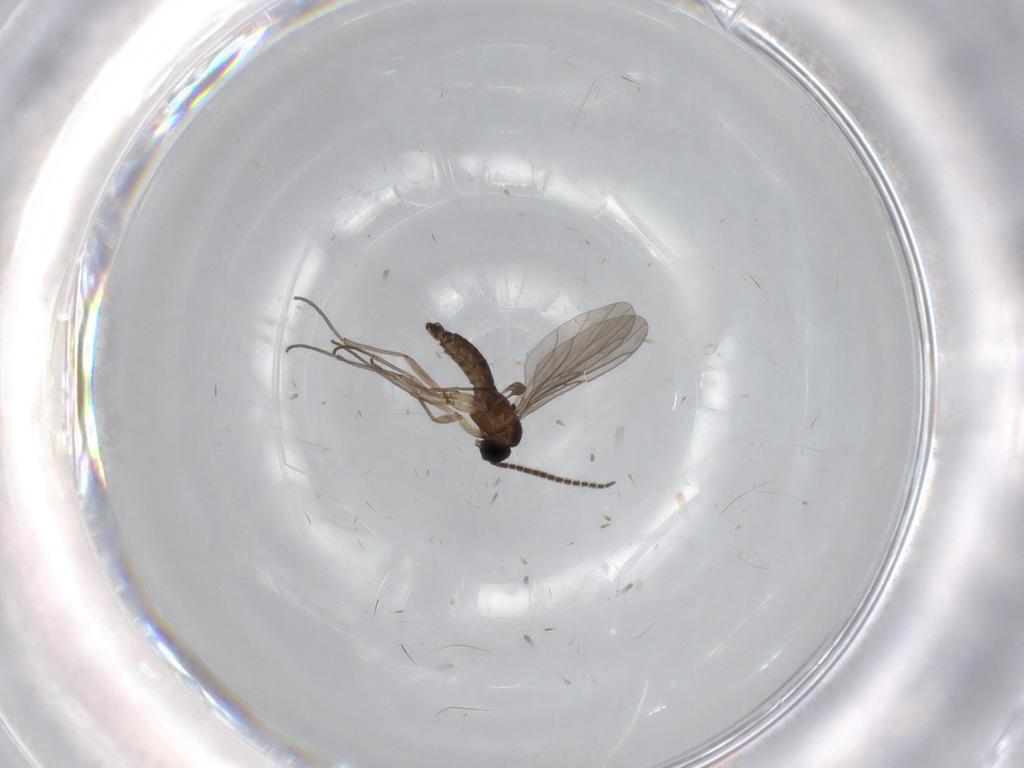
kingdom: Animalia
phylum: Arthropoda
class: Insecta
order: Diptera
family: Sciaridae
